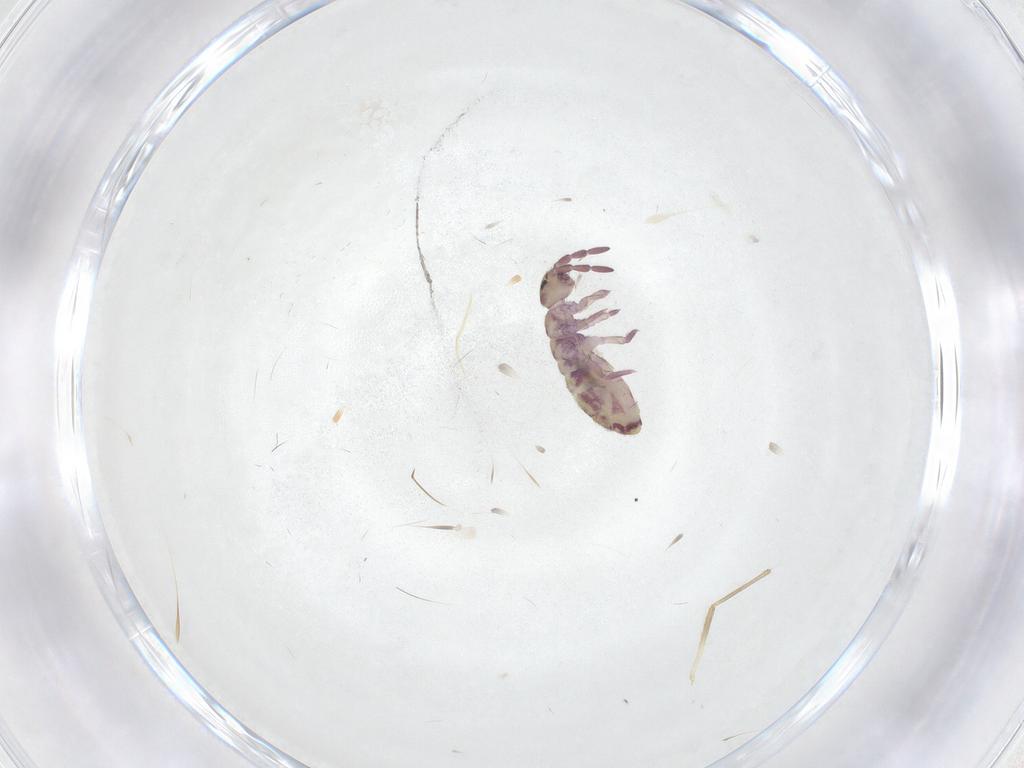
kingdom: Animalia
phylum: Arthropoda
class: Collembola
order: Entomobryomorpha
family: Isotomidae
